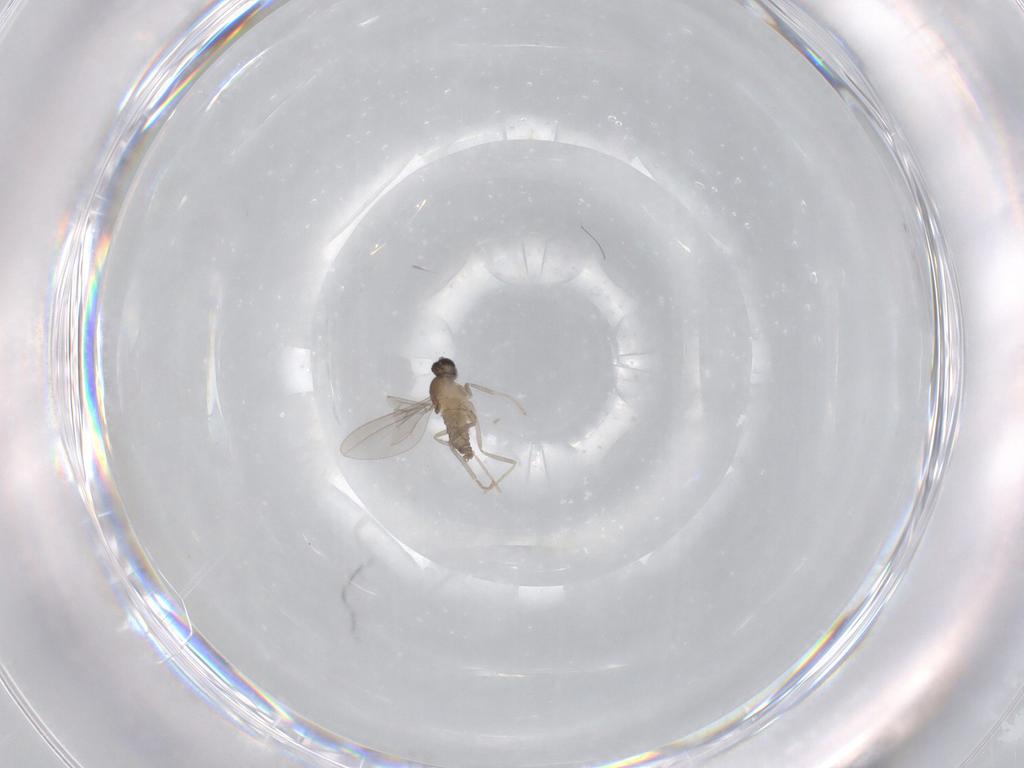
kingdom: Animalia
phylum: Arthropoda
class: Insecta
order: Diptera
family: Cecidomyiidae
